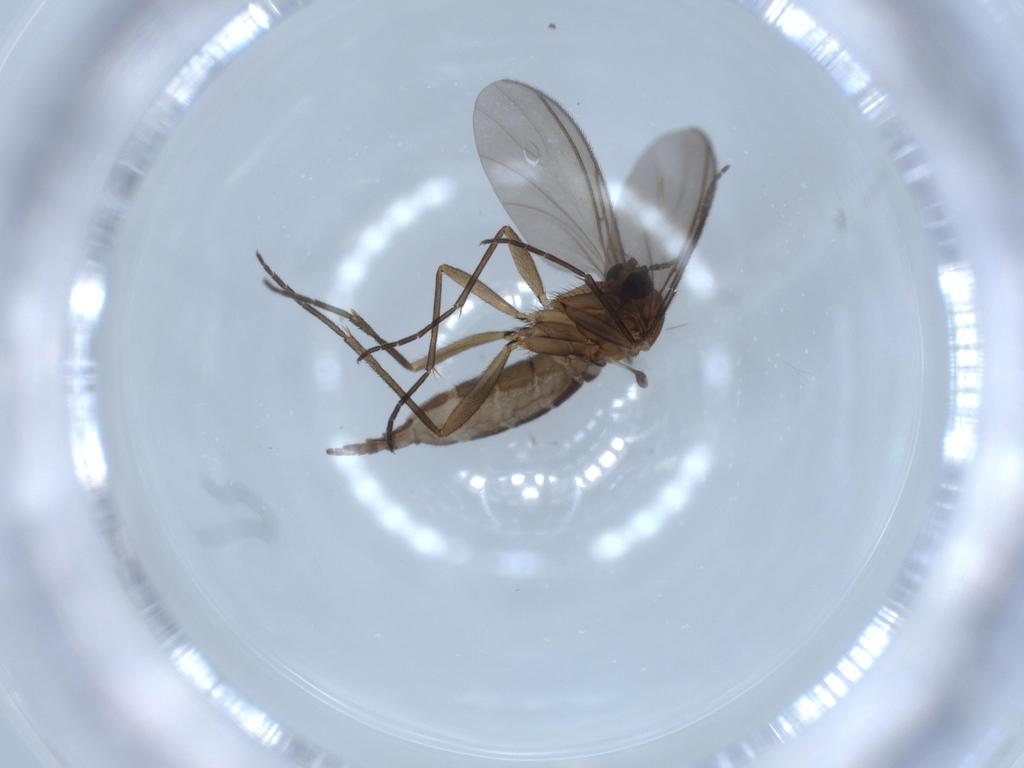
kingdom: Animalia
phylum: Arthropoda
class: Insecta
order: Diptera
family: Sciaridae
